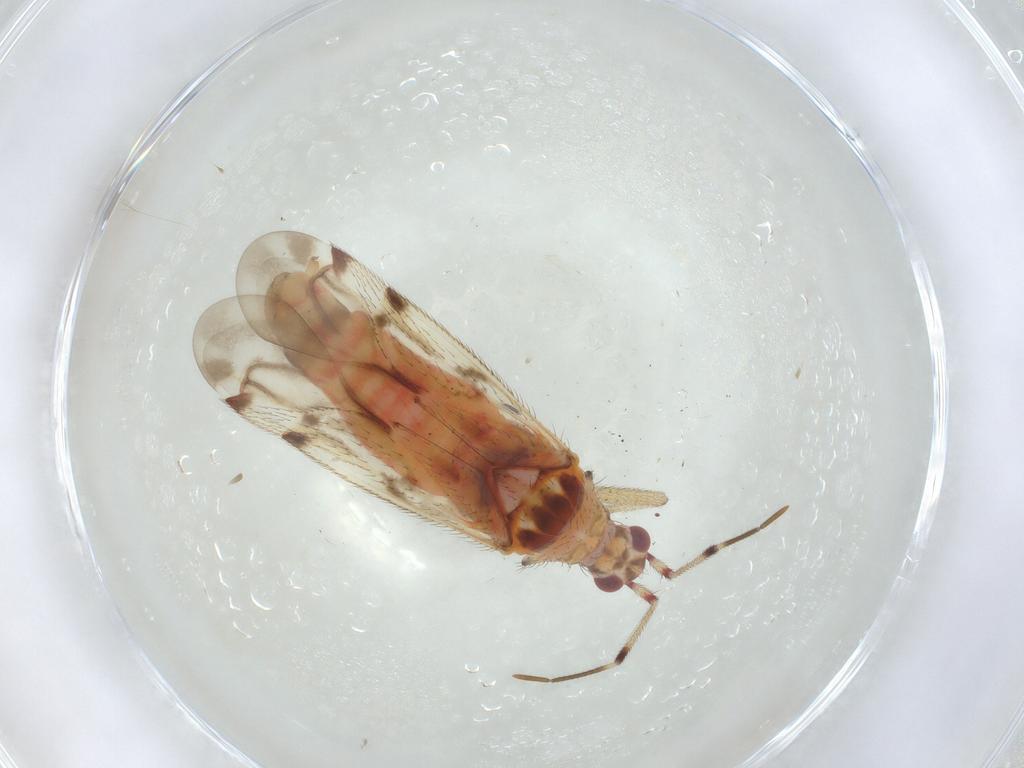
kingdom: Animalia
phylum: Arthropoda
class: Insecta
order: Hemiptera
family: Miridae
